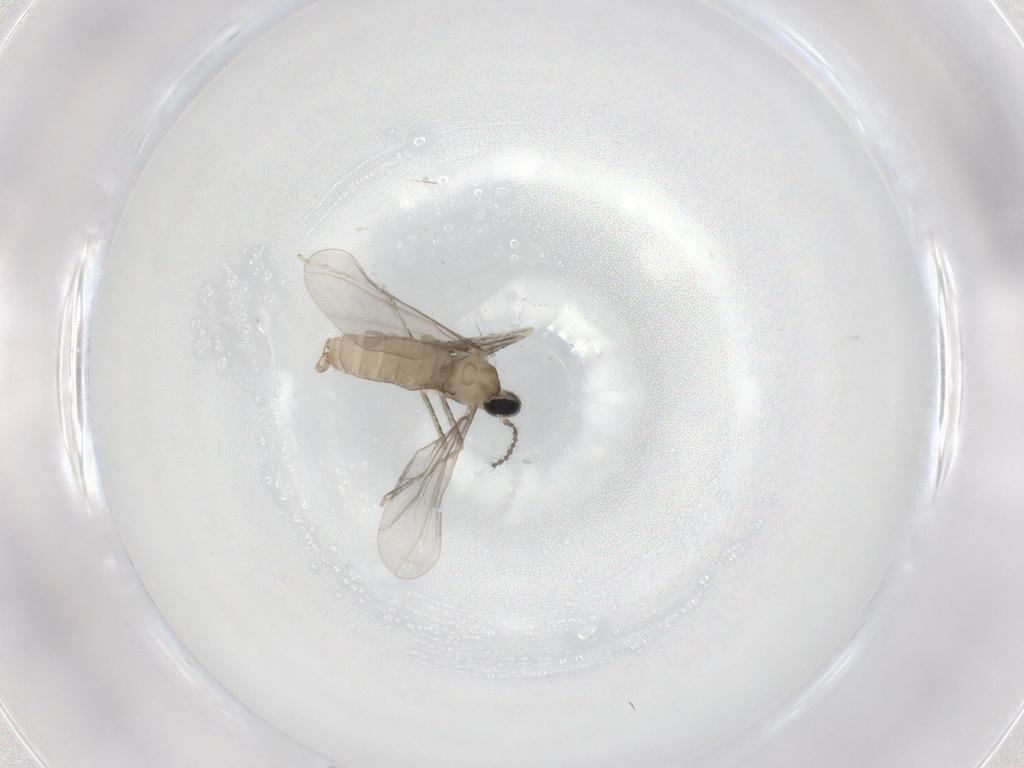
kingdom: Animalia
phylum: Arthropoda
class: Insecta
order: Diptera
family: Cecidomyiidae
